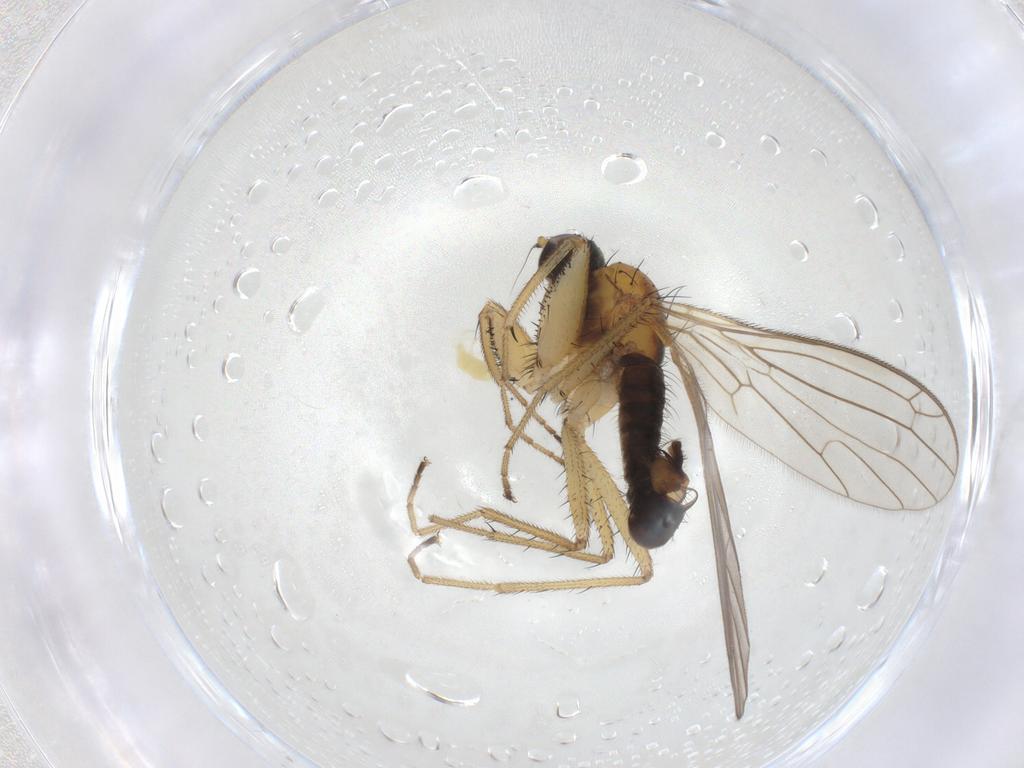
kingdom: Animalia
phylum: Arthropoda
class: Insecta
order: Diptera
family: Empididae
